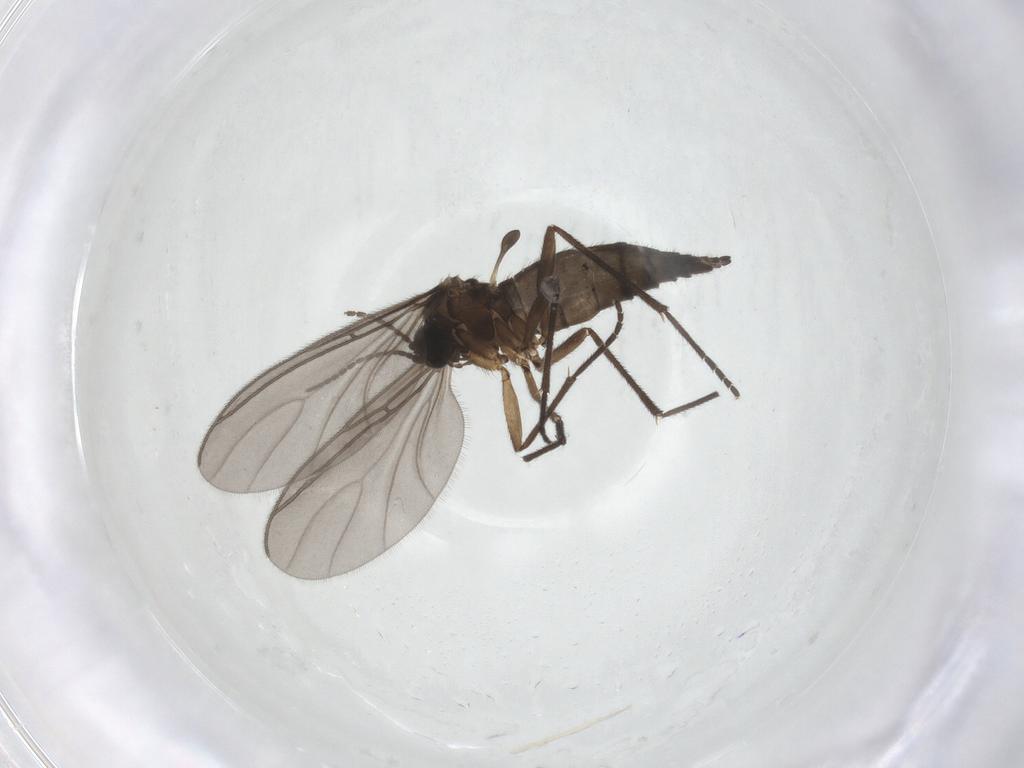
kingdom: Animalia
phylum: Arthropoda
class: Insecta
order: Diptera
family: Sciaridae
